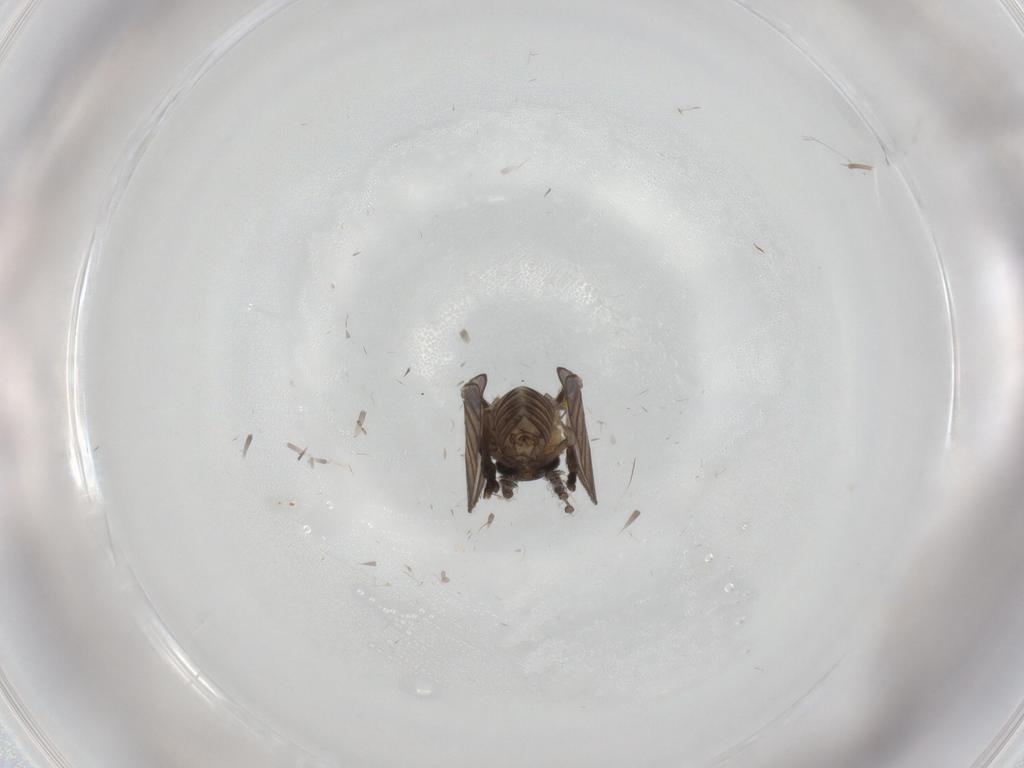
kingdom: Animalia
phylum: Arthropoda
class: Insecta
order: Diptera
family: Psychodidae
